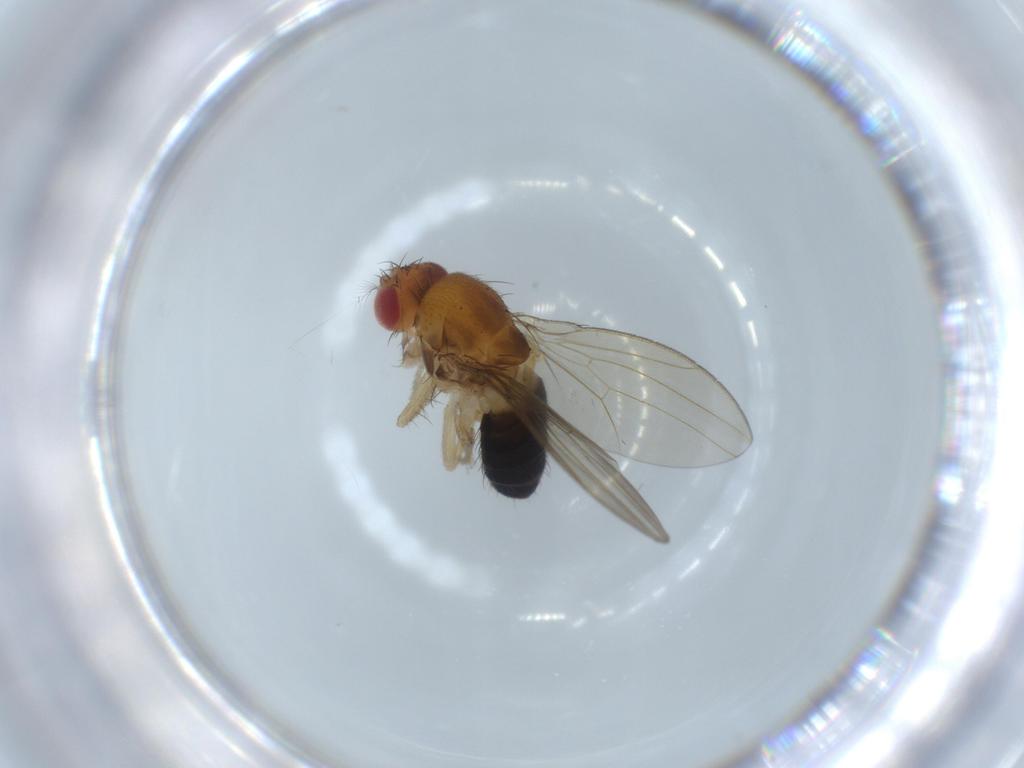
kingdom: Animalia
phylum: Arthropoda
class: Insecta
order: Diptera
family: Drosophilidae
